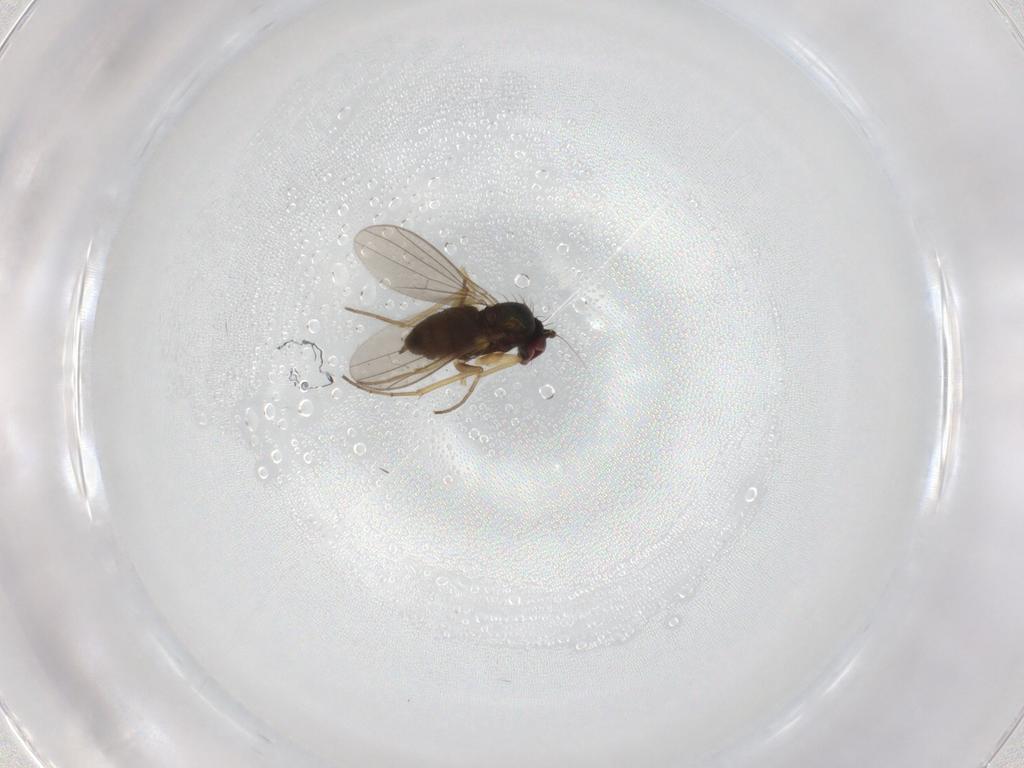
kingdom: Animalia
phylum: Arthropoda
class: Insecta
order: Diptera
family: Dolichopodidae
